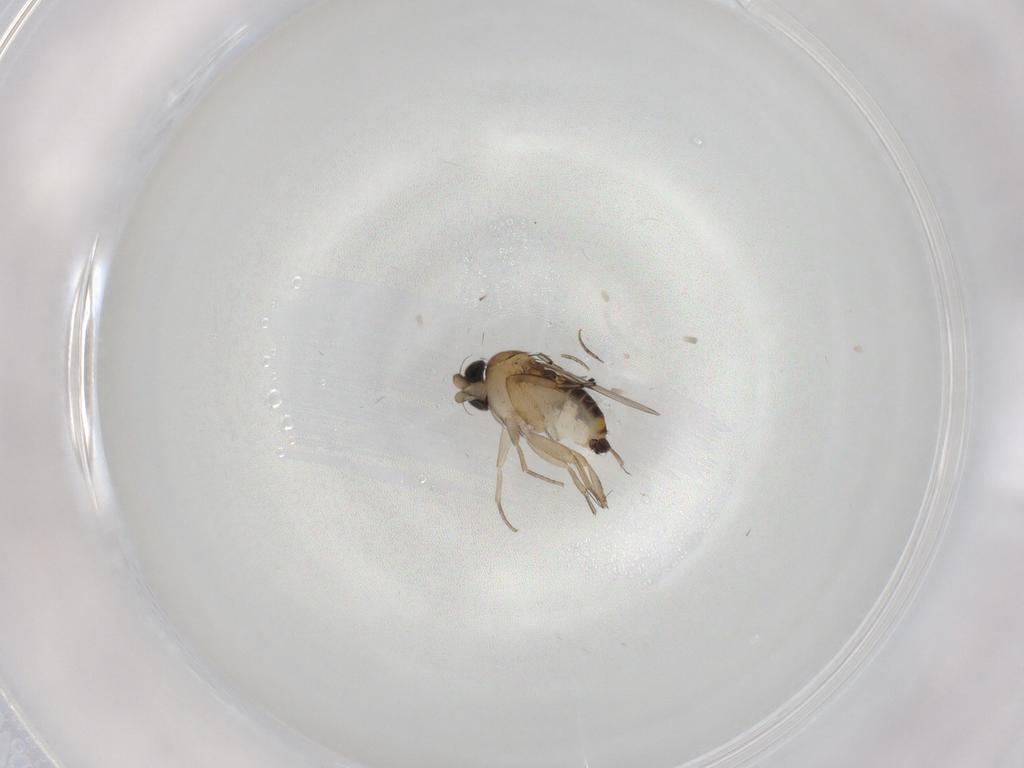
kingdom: Animalia
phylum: Arthropoda
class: Insecta
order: Diptera
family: Phoridae
